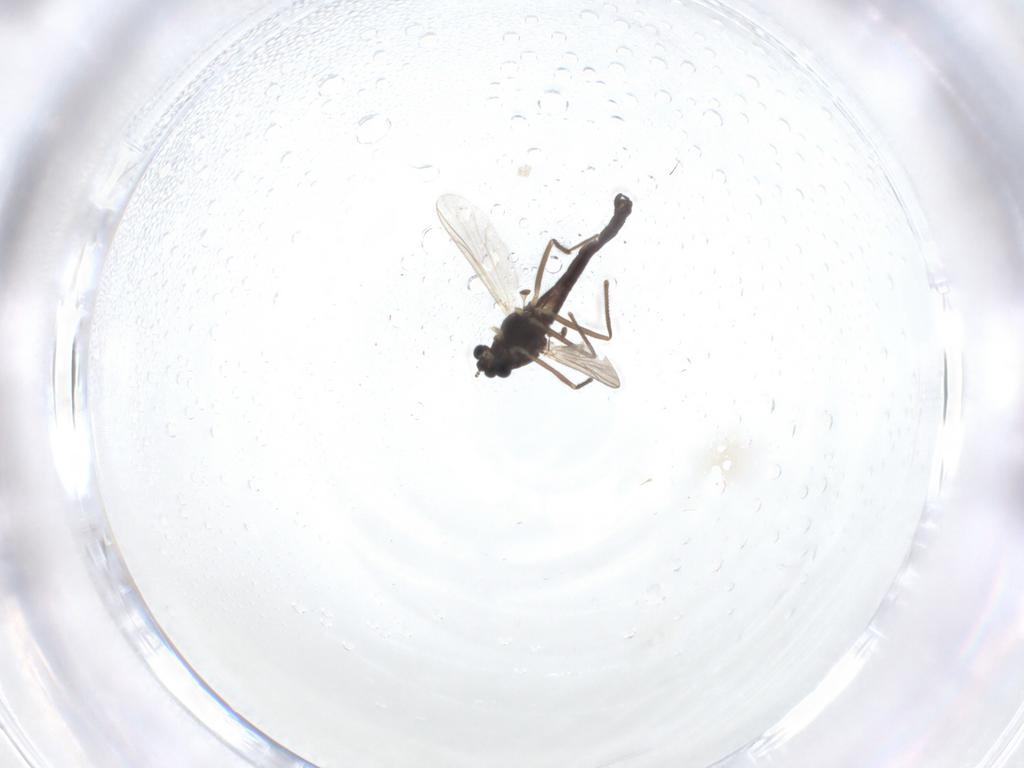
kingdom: Animalia
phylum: Arthropoda
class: Insecta
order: Diptera
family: Chironomidae
